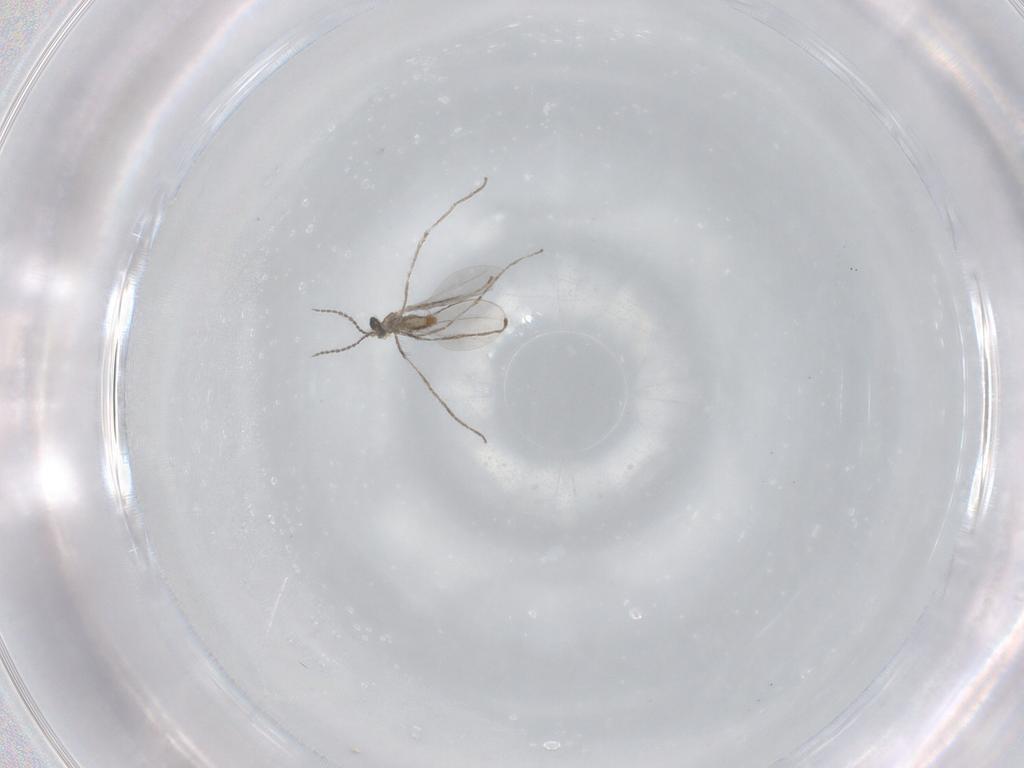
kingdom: Animalia
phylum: Arthropoda
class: Insecta
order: Diptera
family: Cecidomyiidae
